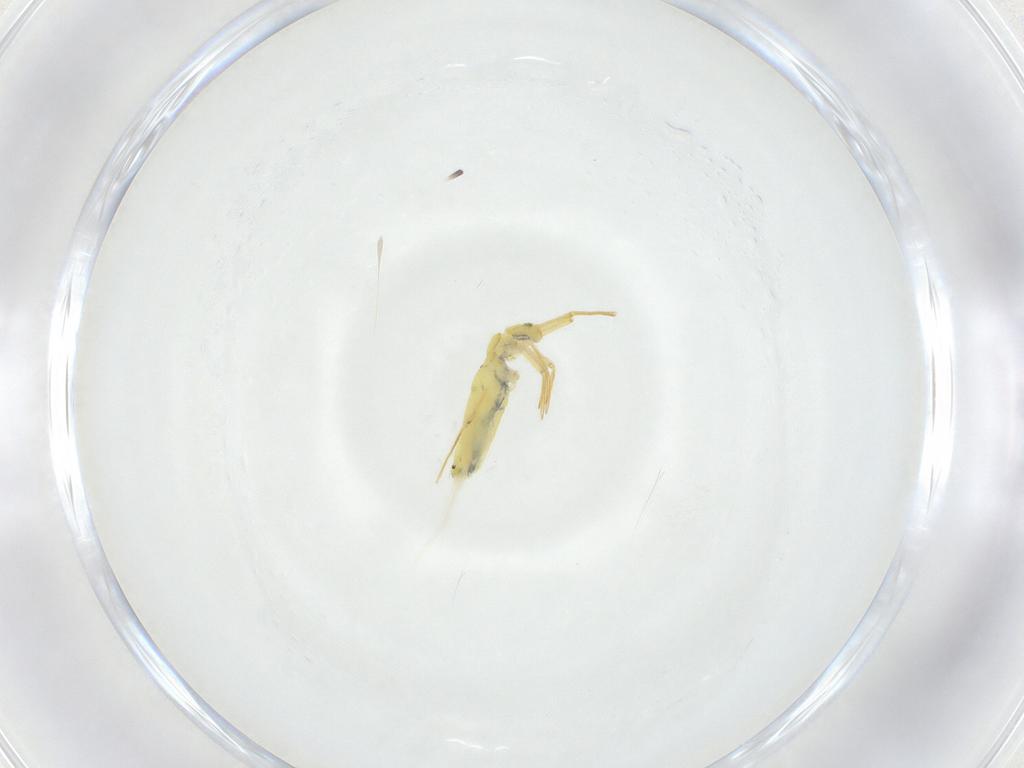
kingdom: Animalia
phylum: Arthropoda
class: Collembola
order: Entomobryomorpha
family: Entomobryidae
